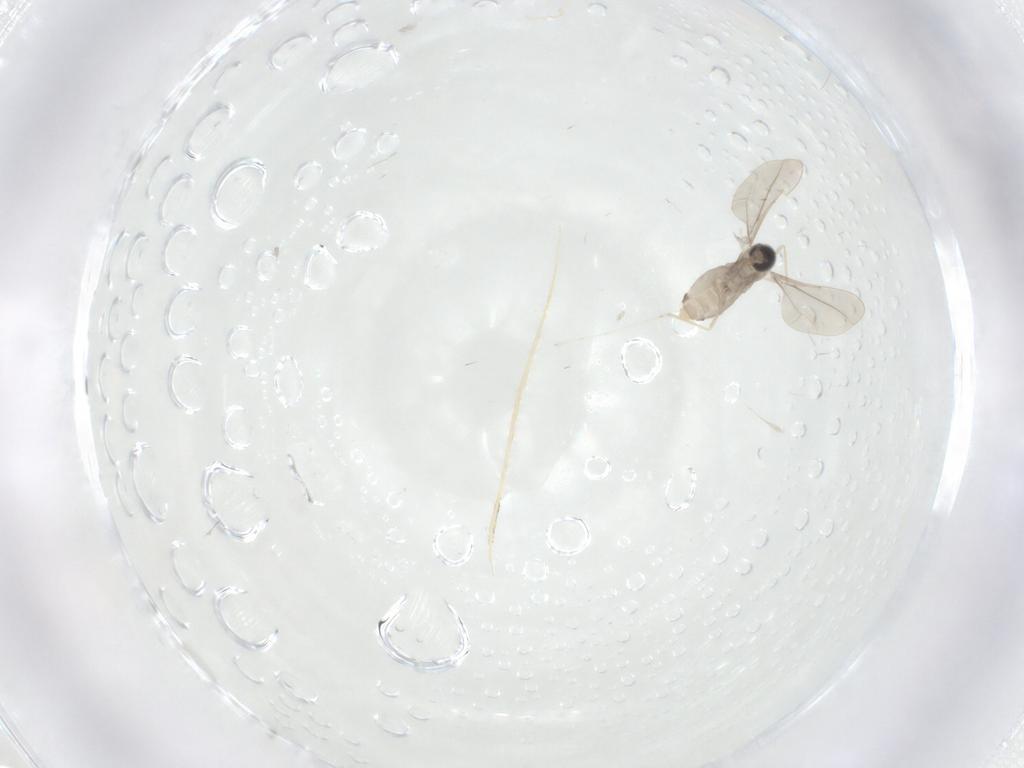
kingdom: Animalia
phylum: Arthropoda
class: Insecta
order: Diptera
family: Cecidomyiidae
